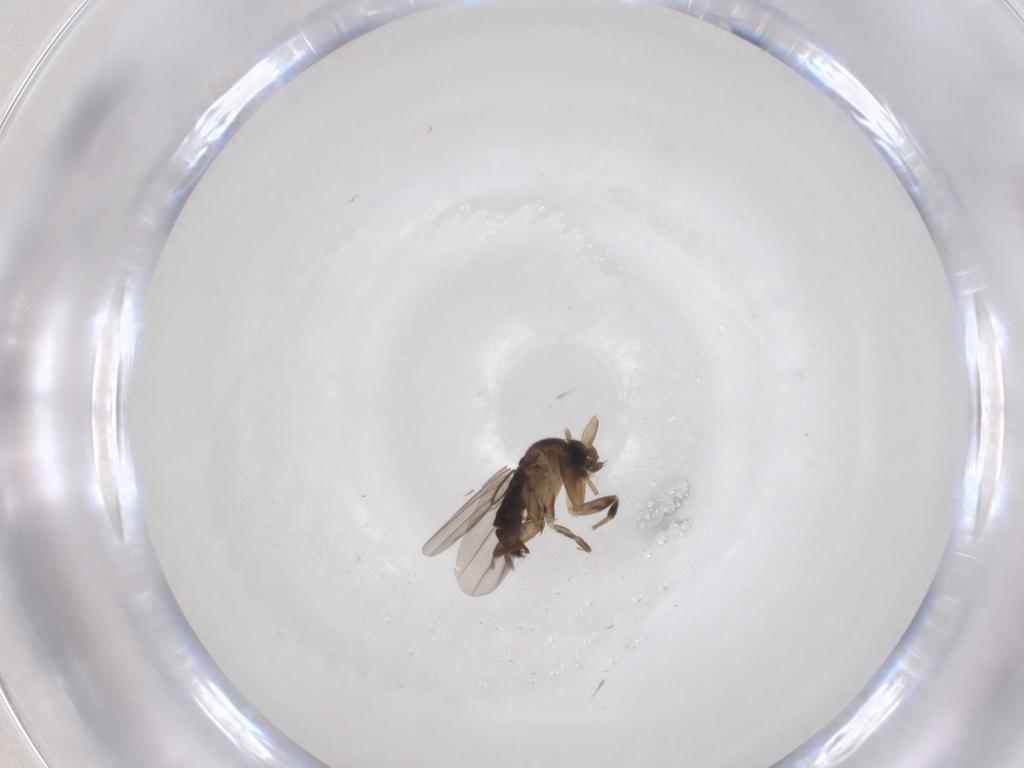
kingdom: Animalia
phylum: Arthropoda
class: Insecta
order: Diptera
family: Phoridae
